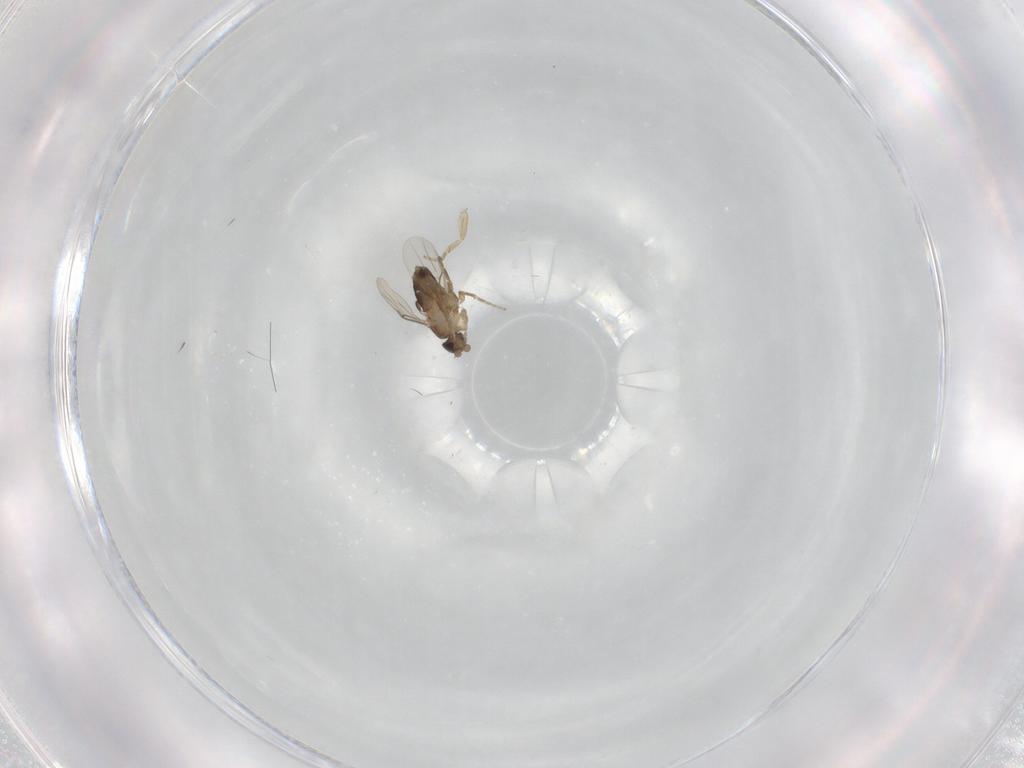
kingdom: Animalia
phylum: Arthropoda
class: Insecta
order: Diptera
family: Phoridae
